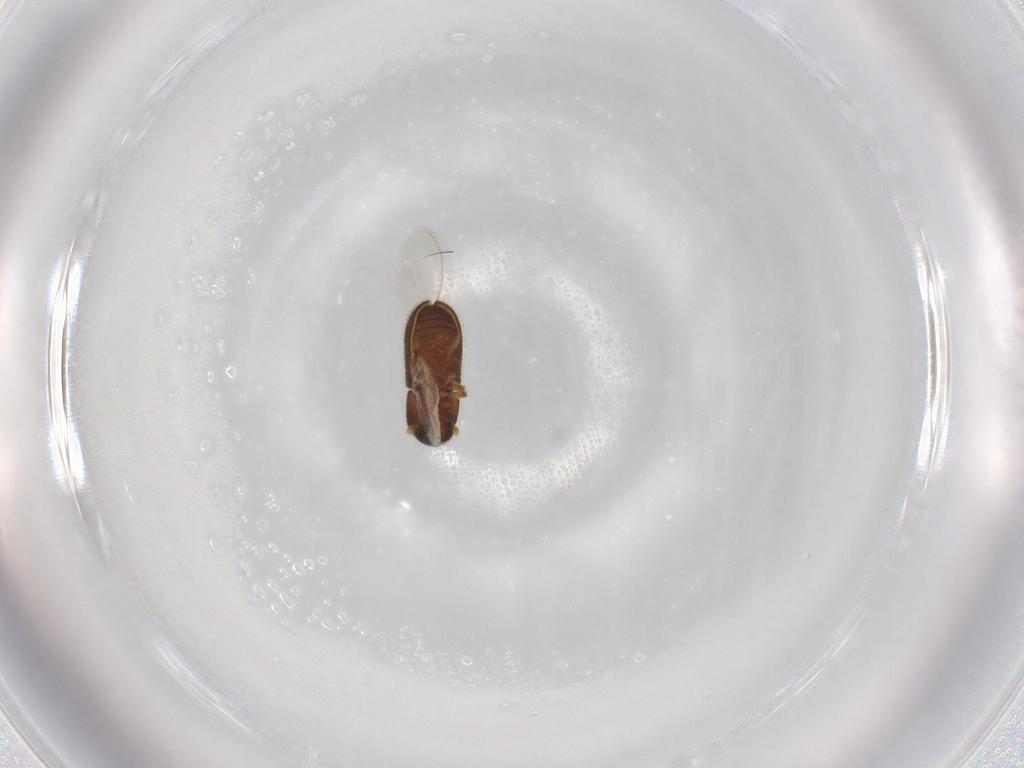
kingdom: Animalia
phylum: Arthropoda
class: Insecta
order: Coleoptera
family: Curculionidae
